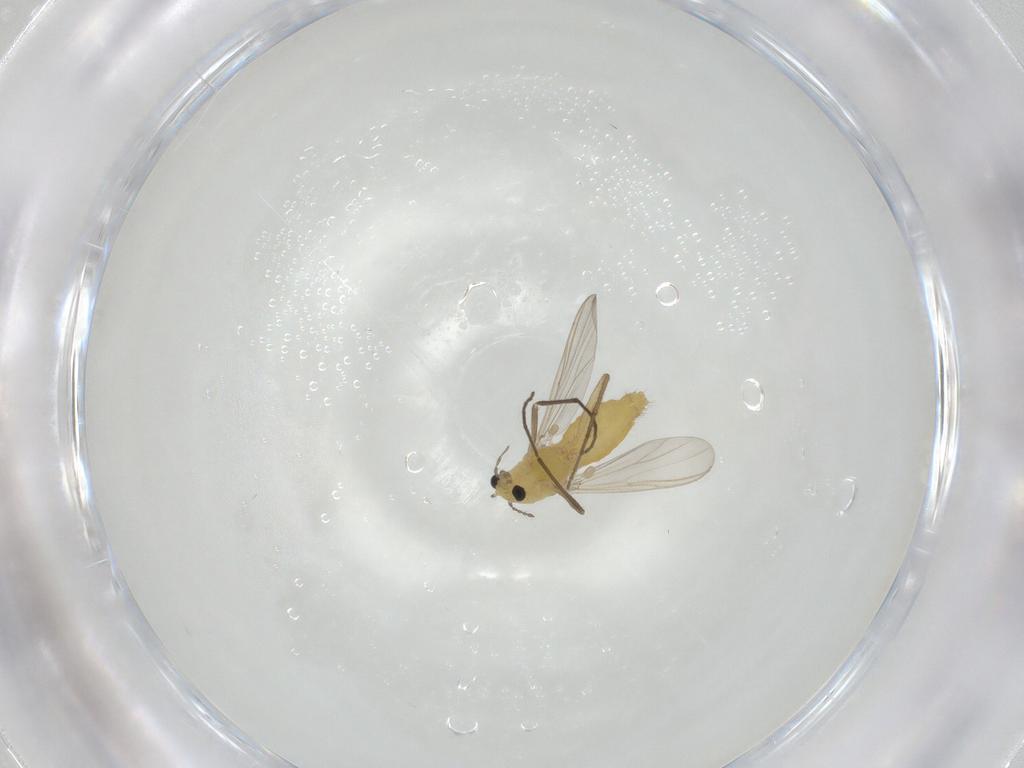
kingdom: Animalia
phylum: Arthropoda
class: Insecta
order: Diptera
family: Chironomidae
